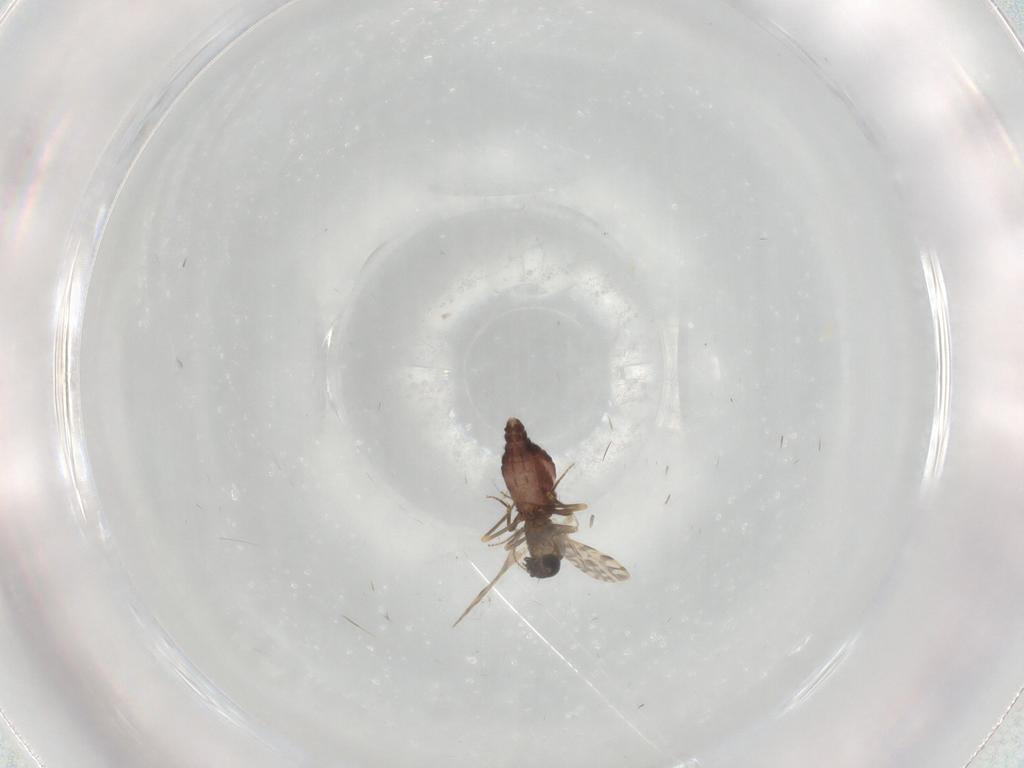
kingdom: Animalia
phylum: Arthropoda
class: Insecta
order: Diptera
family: Ceratopogonidae
